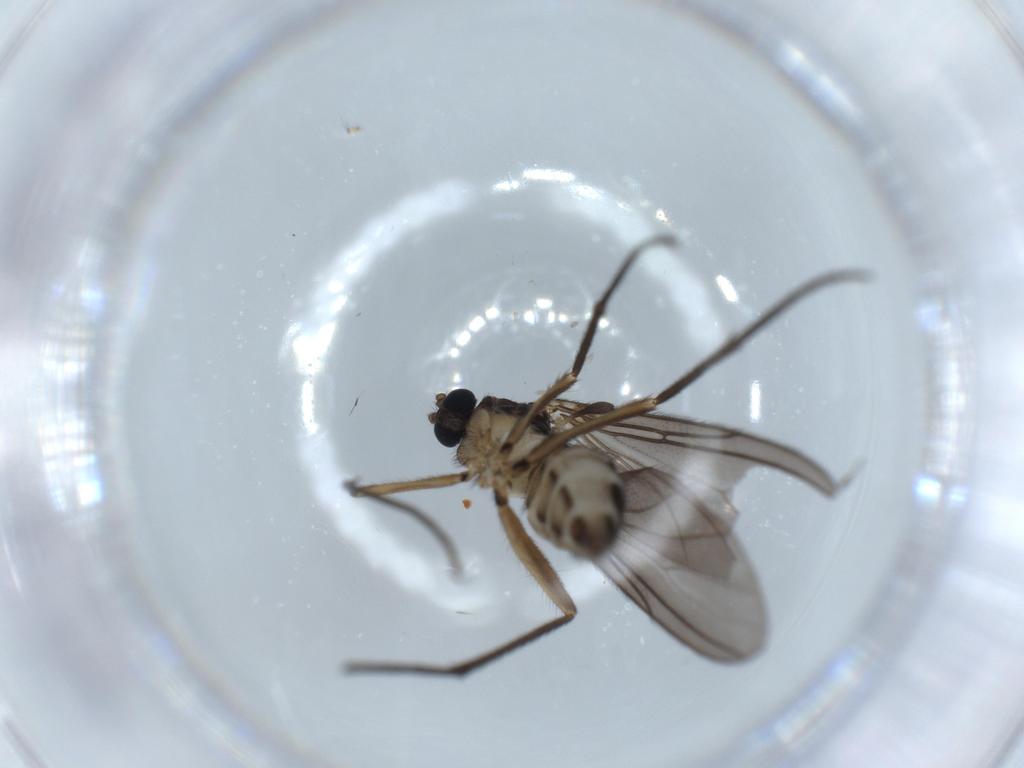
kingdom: Animalia
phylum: Arthropoda
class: Insecta
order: Diptera
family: Sciaridae
